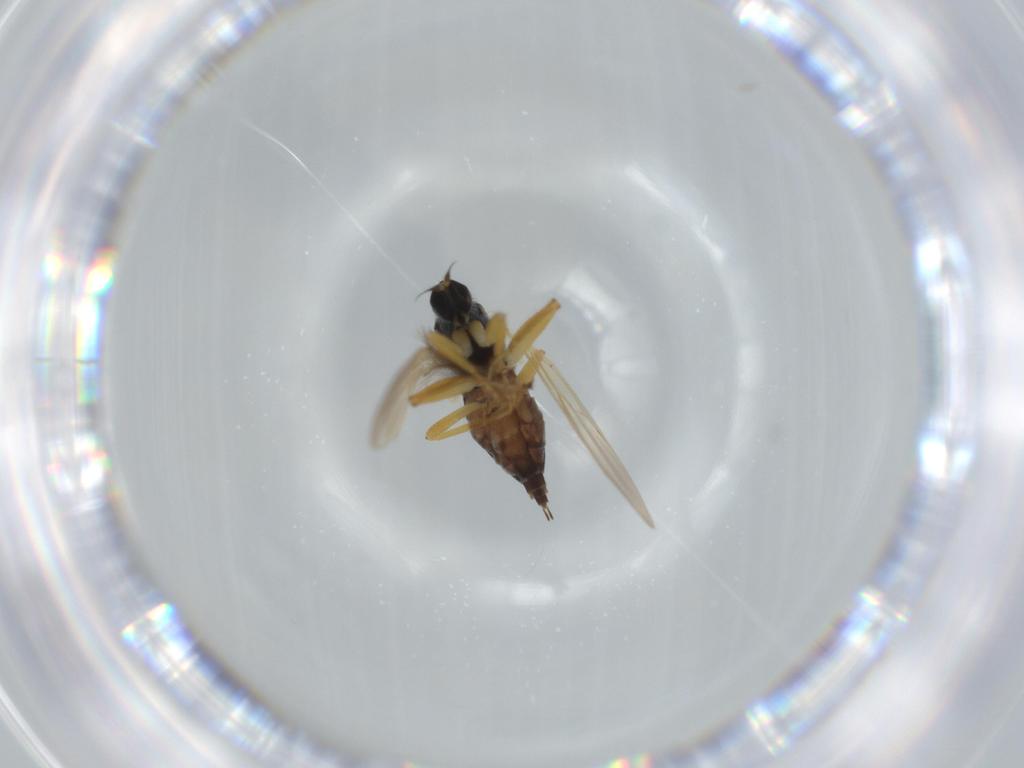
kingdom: Animalia
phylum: Arthropoda
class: Insecta
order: Diptera
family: Hybotidae
